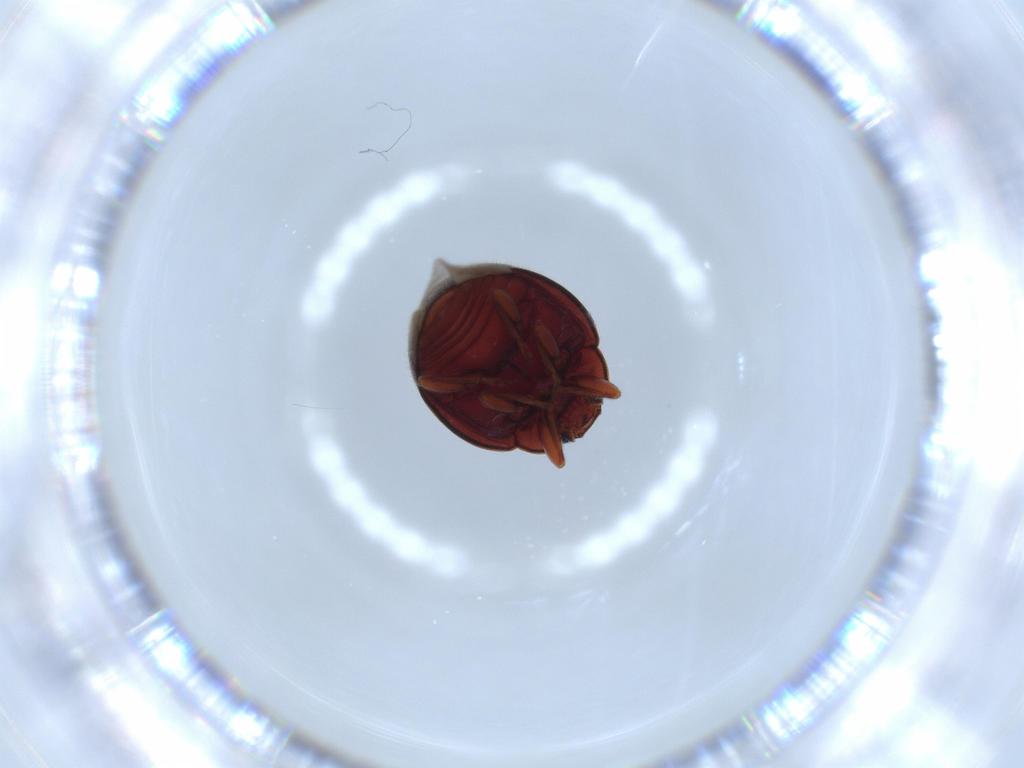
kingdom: Animalia
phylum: Arthropoda
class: Insecta
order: Coleoptera
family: Coccinellidae
